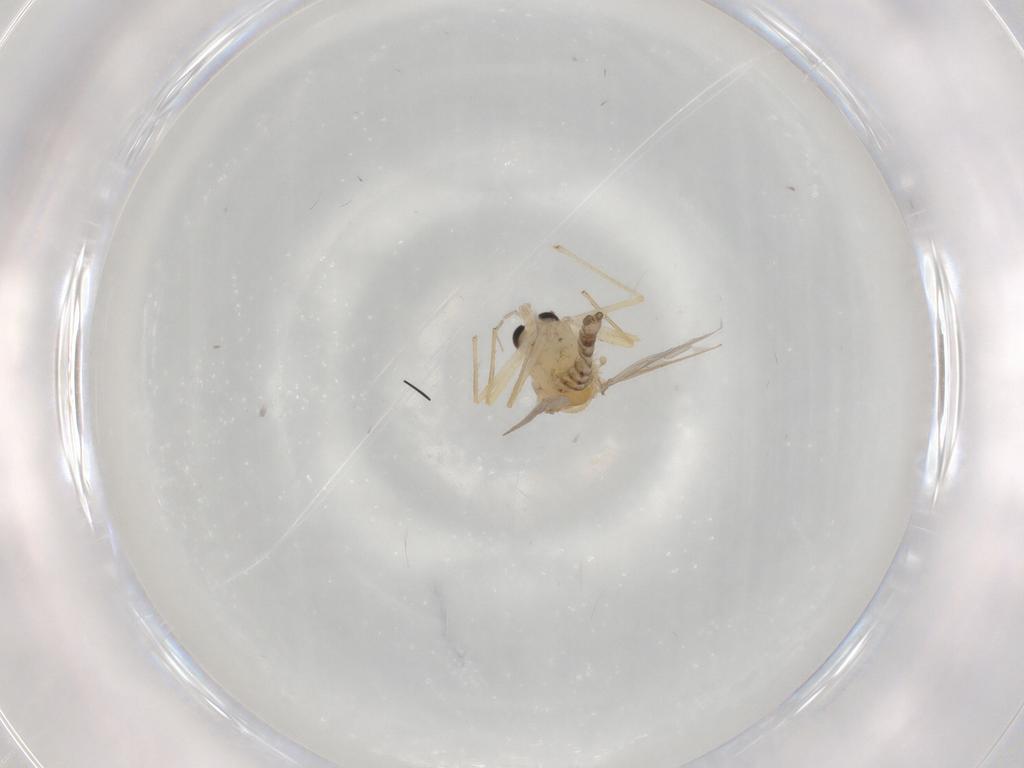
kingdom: Animalia
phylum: Arthropoda
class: Insecta
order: Diptera
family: Chironomidae
